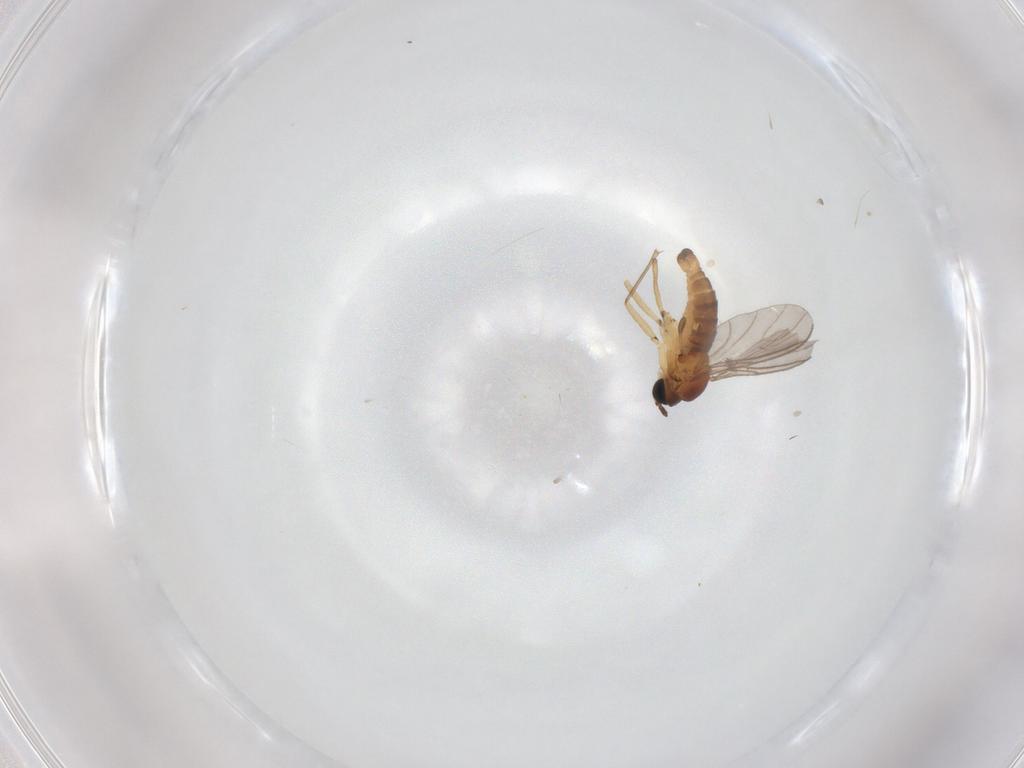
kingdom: Animalia
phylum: Arthropoda
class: Insecta
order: Diptera
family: Sciaridae
